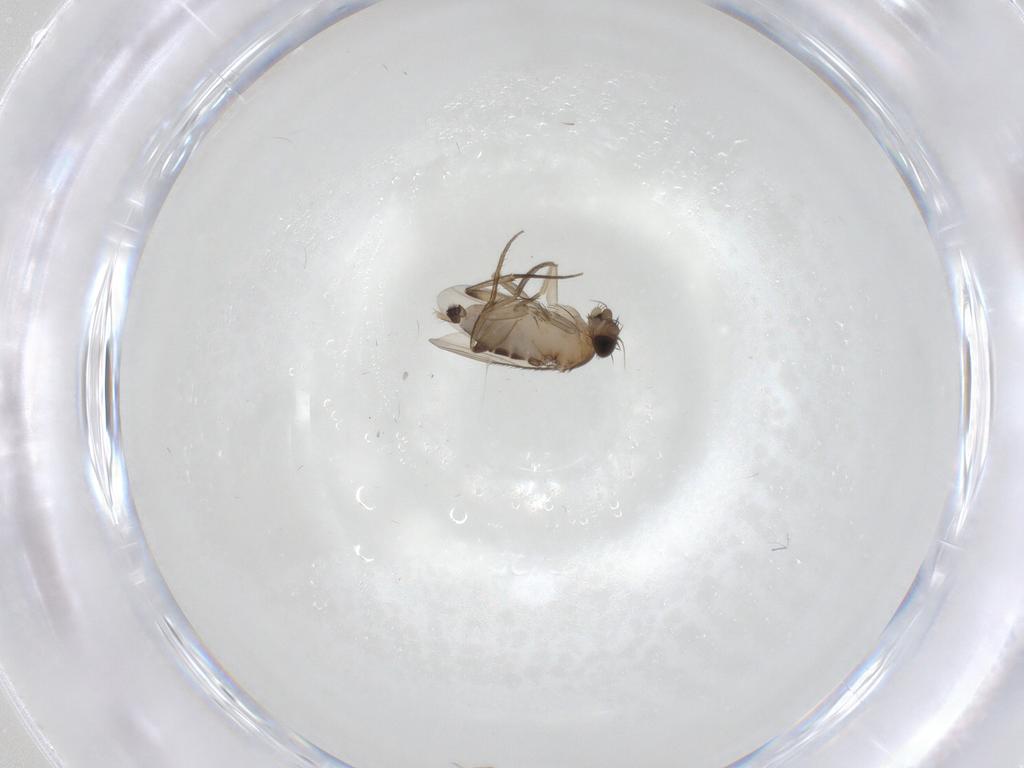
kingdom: Animalia
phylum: Arthropoda
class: Insecta
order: Diptera
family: Phoridae
